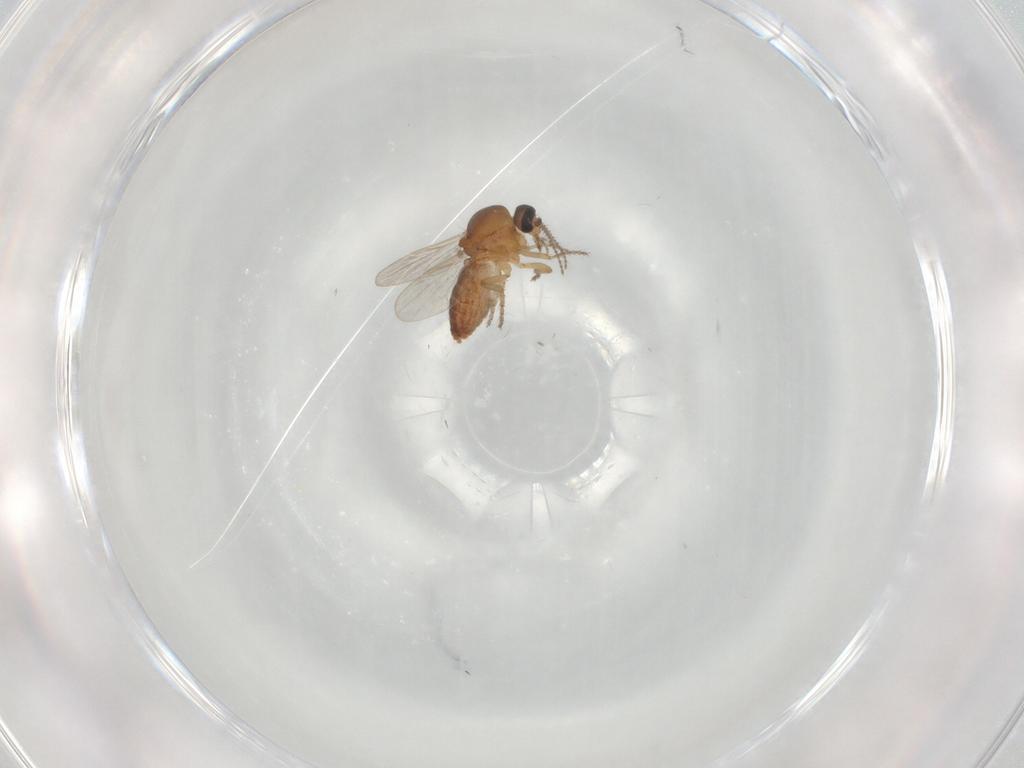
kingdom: Animalia
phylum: Arthropoda
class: Insecta
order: Diptera
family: Ceratopogonidae
